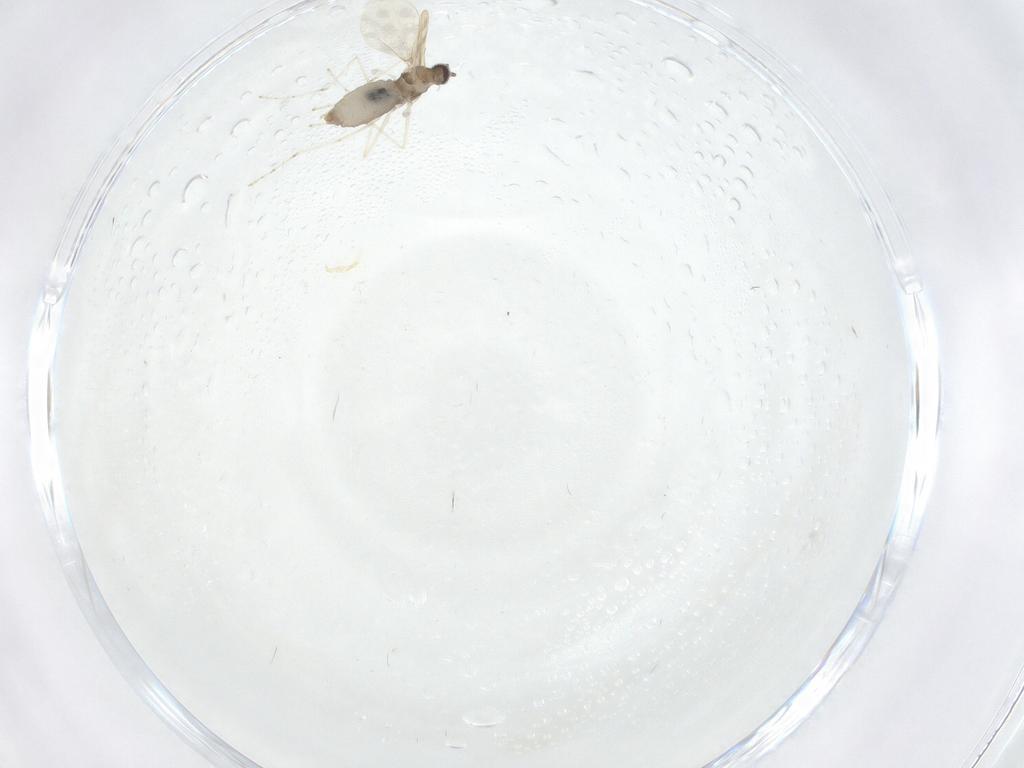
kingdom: Animalia
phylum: Arthropoda
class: Insecta
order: Diptera
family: Cecidomyiidae
